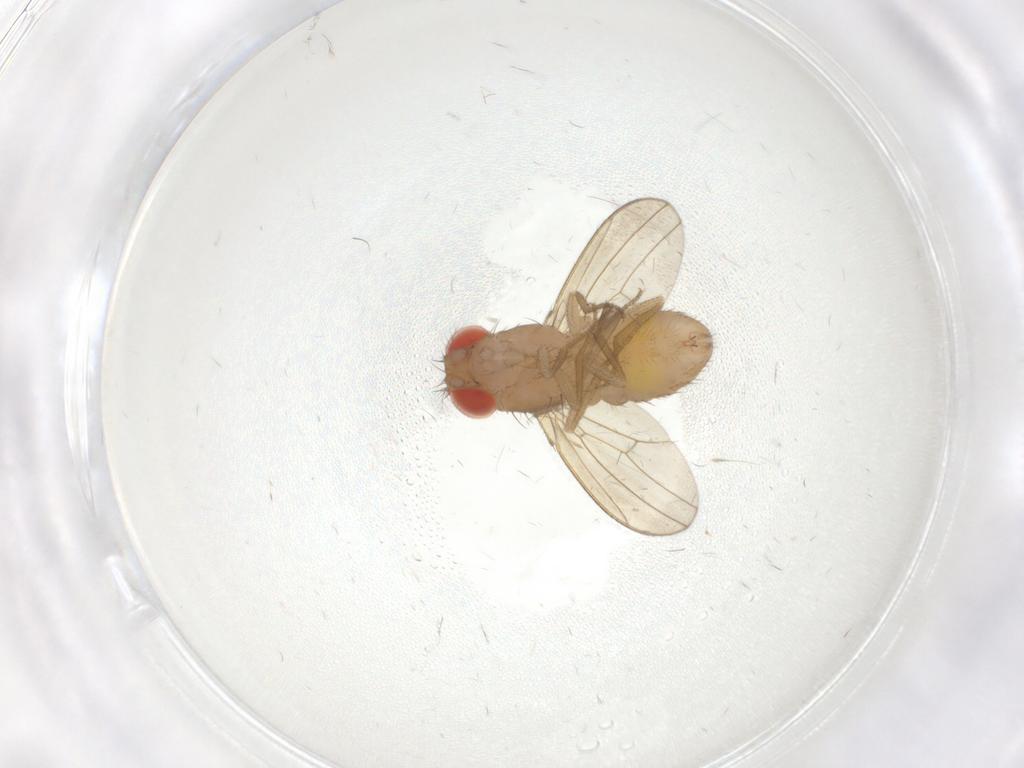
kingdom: Animalia
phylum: Arthropoda
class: Insecta
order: Diptera
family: Drosophilidae
